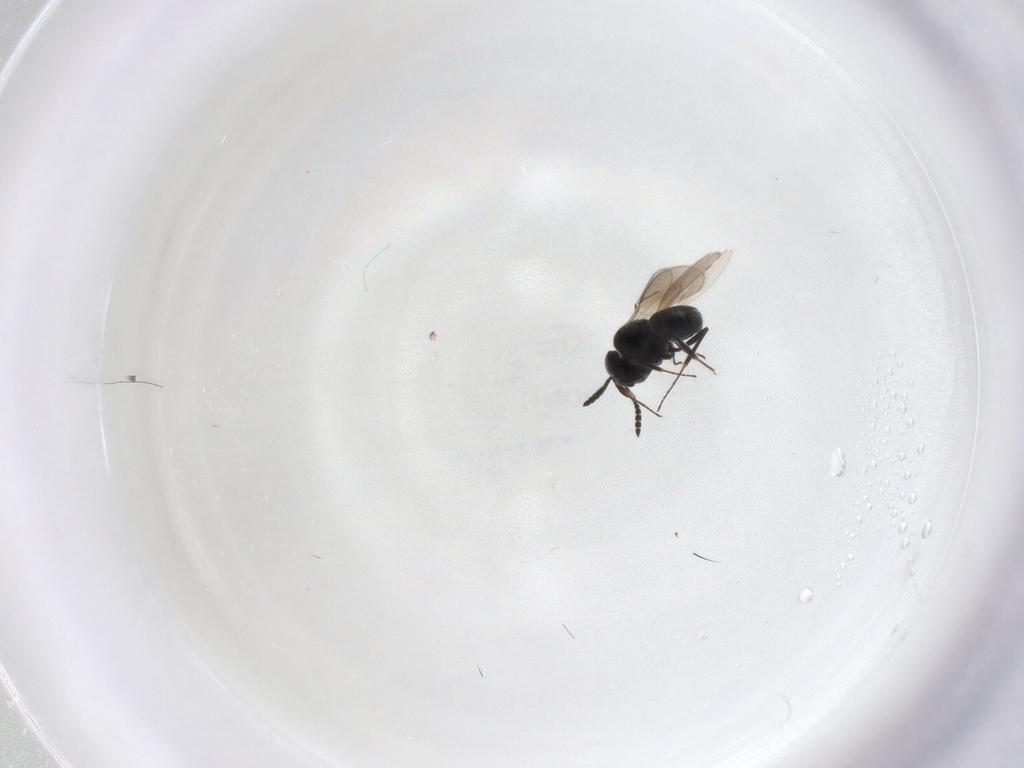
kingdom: Animalia
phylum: Arthropoda
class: Insecta
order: Hymenoptera
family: Scelionidae
